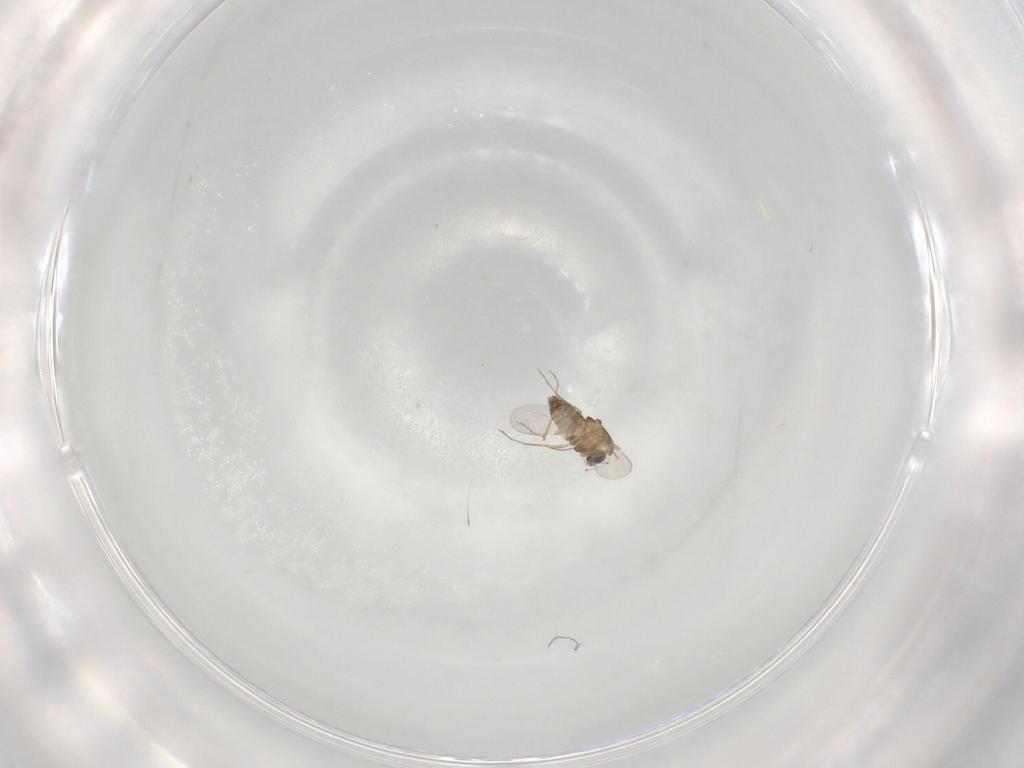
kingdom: Animalia
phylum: Arthropoda
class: Insecta
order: Diptera
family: Chironomidae
